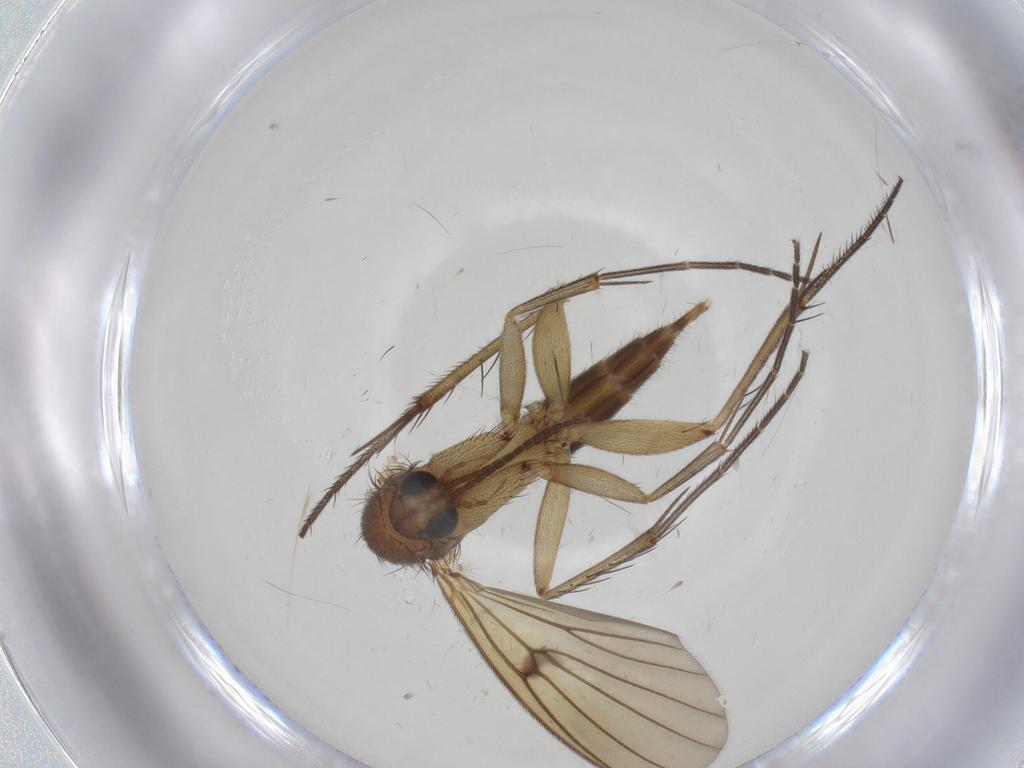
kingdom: Animalia
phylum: Arthropoda
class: Insecta
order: Diptera
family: Mycetophilidae
